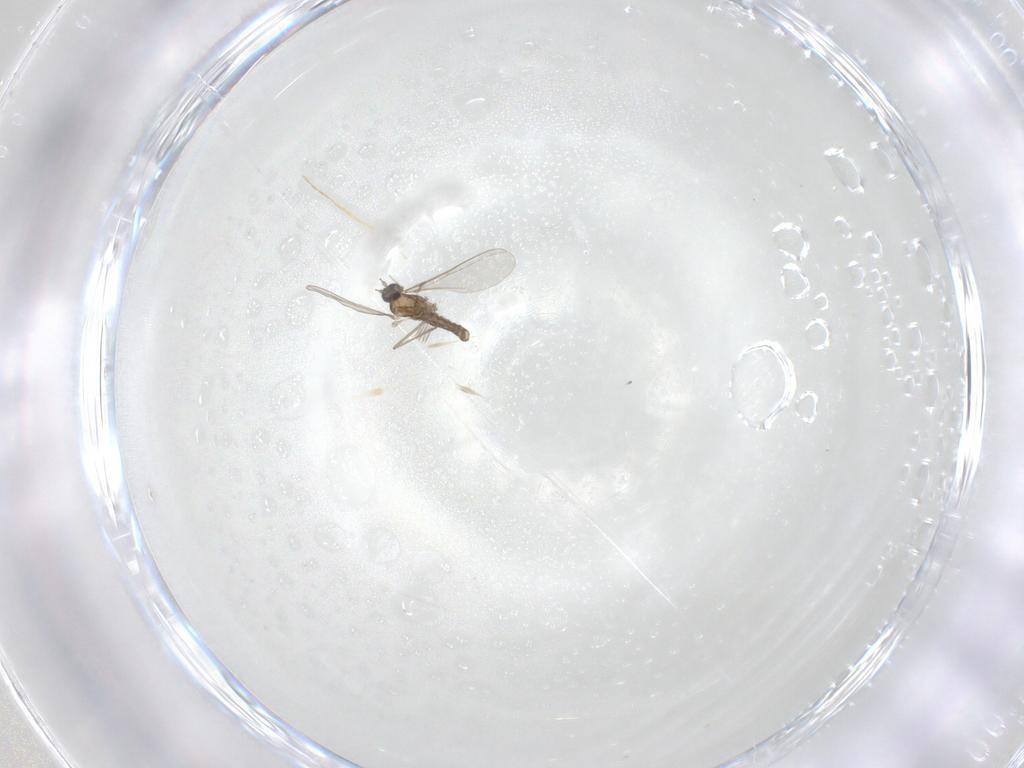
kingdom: Animalia
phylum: Arthropoda
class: Insecta
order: Diptera
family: Cecidomyiidae
